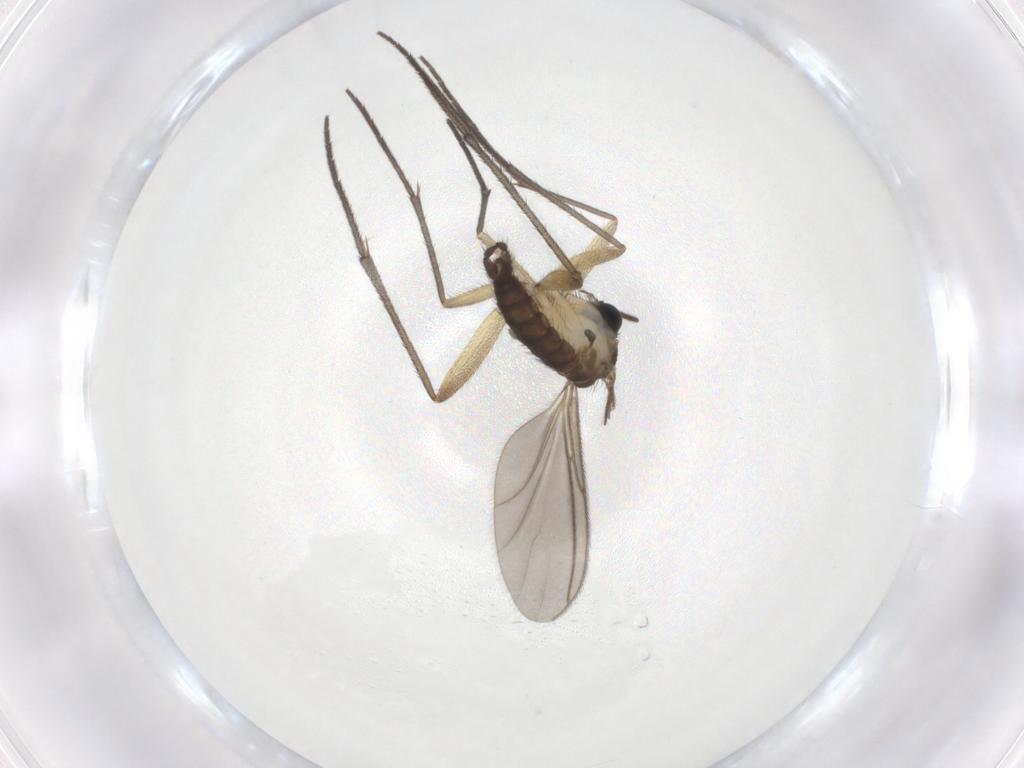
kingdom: Animalia
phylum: Arthropoda
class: Insecta
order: Diptera
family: Sciaridae
